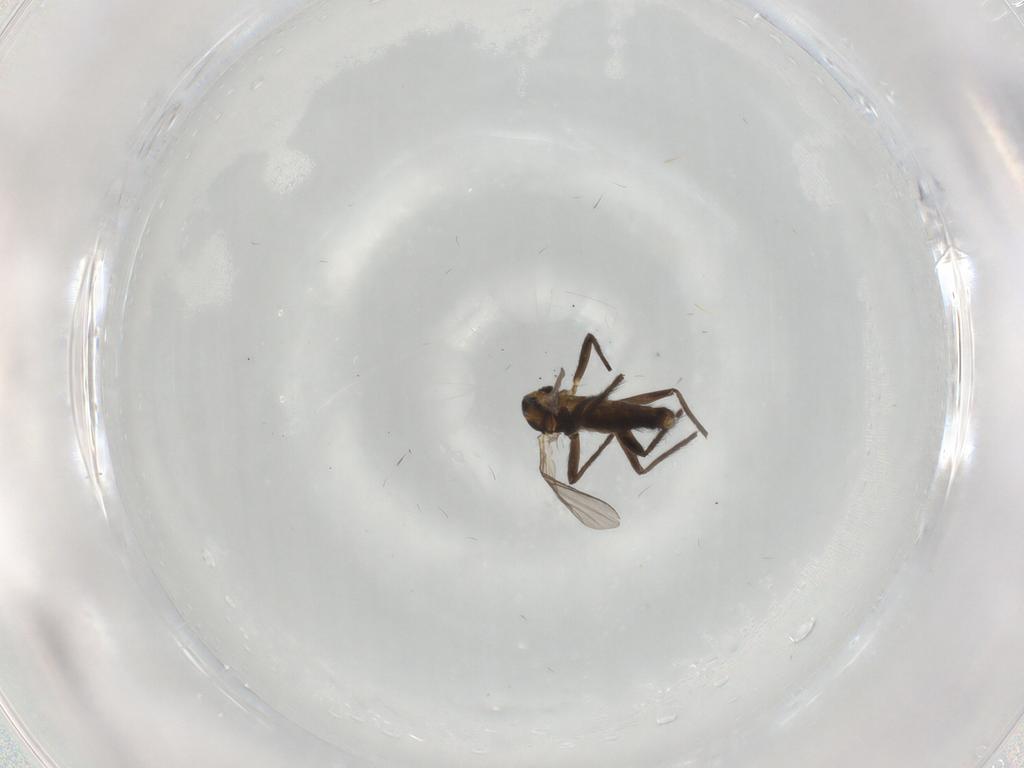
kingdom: Animalia
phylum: Arthropoda
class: Insecta
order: Diptera
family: Chironomidae
